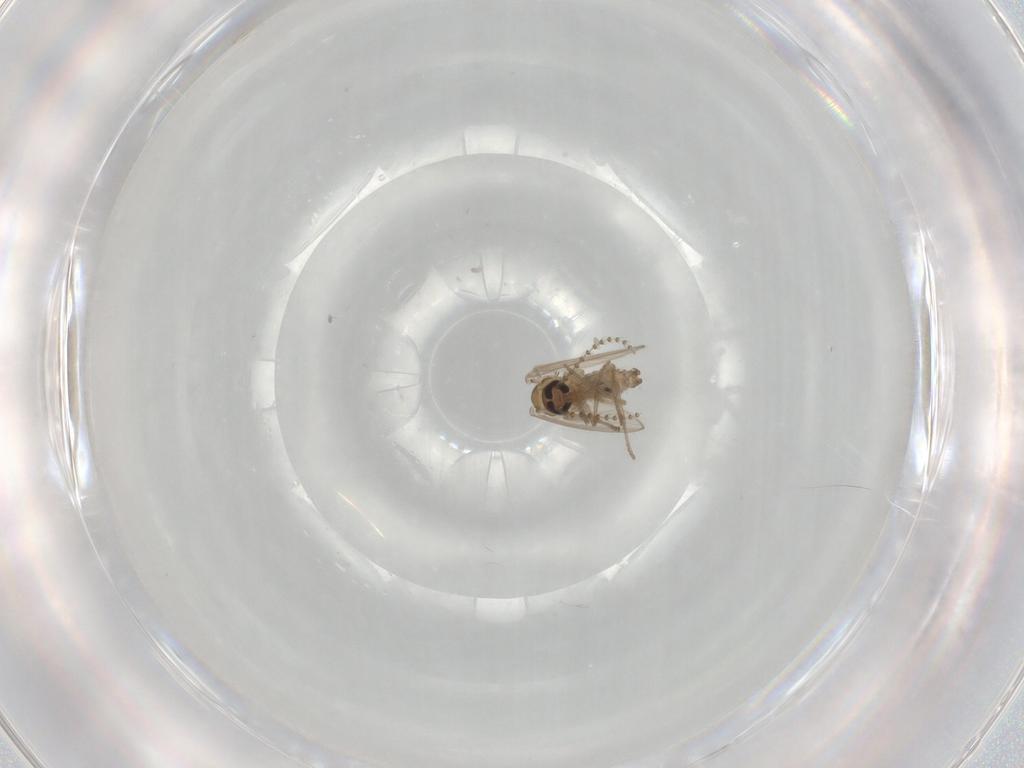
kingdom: Animalia
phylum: Arthropoda
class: Insecta
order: Diptera
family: Psychodidae
